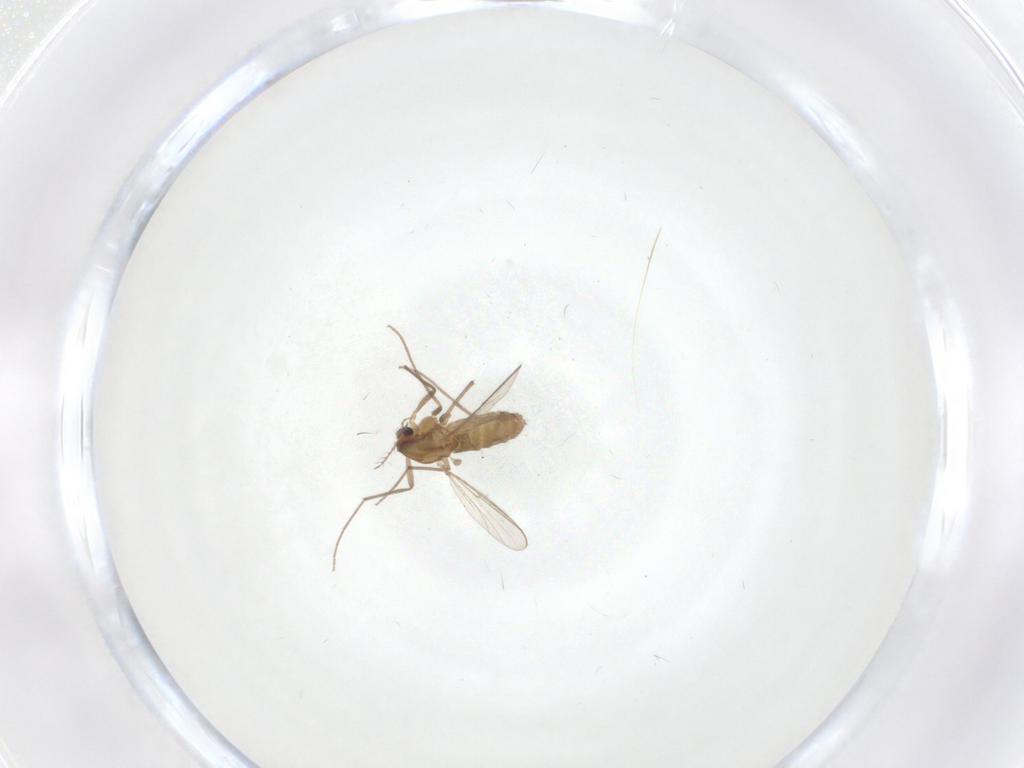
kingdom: Animalia
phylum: Arthropoda
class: Insecta
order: Diptera
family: Chironomidae
